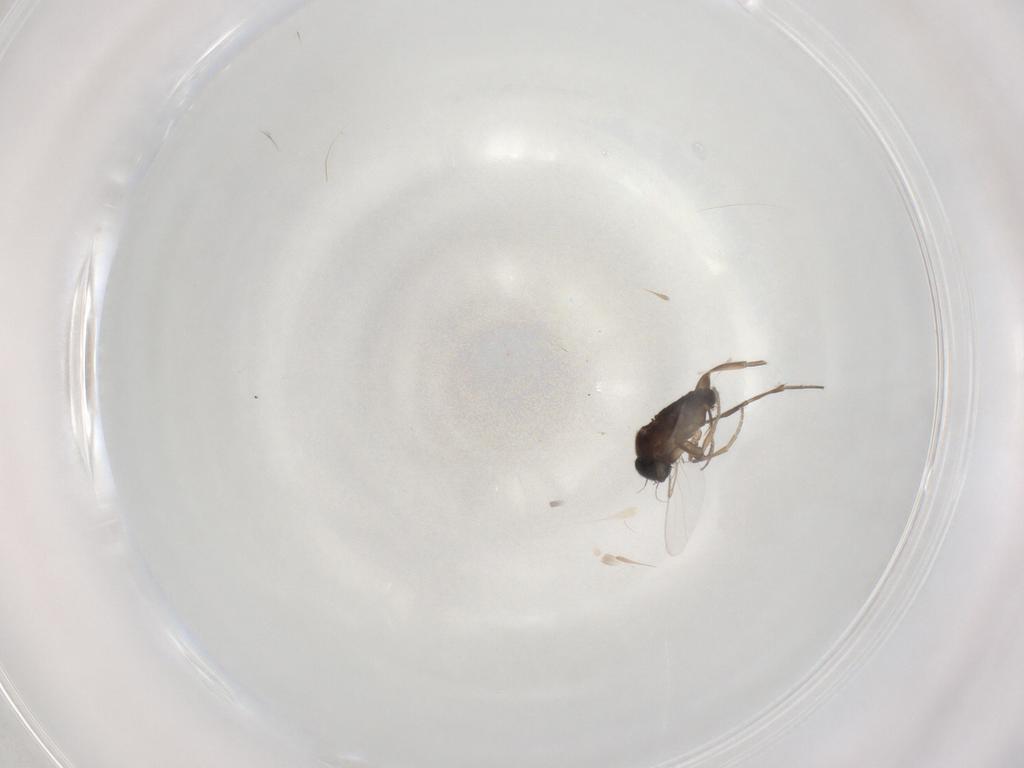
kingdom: Animalia
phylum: Arthropoda
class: Insecta
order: Diptera
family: Phoridae
